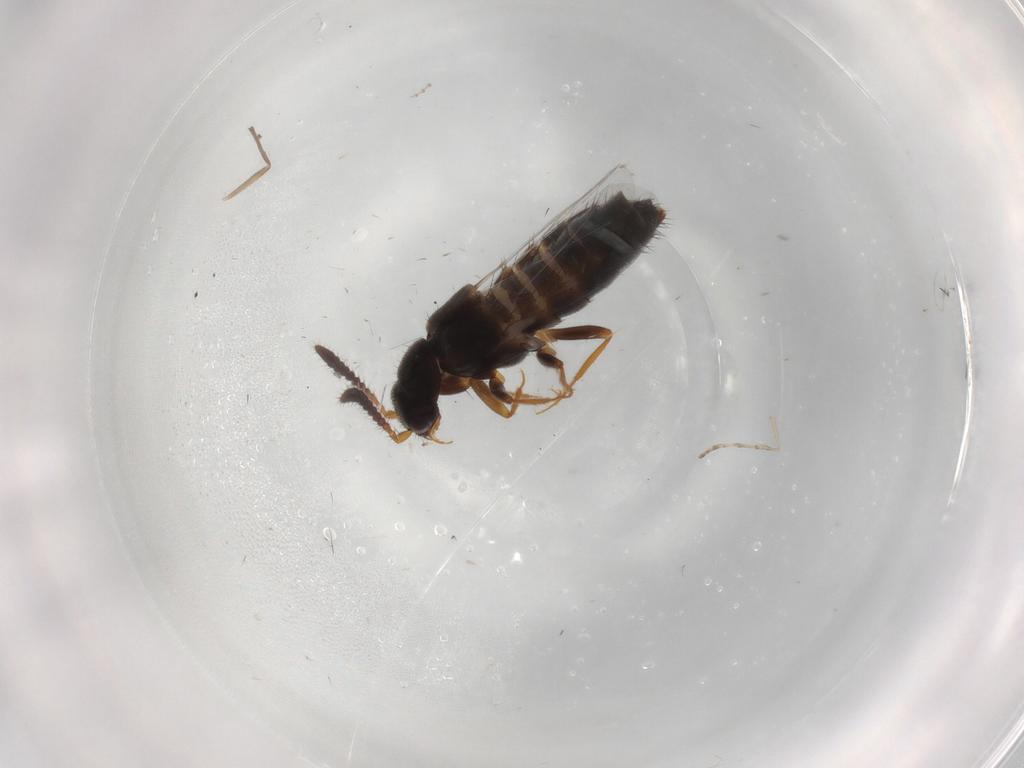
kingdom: Animalia
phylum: Arthropoda
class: Insecta
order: Coleoptera
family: Staphylinidae
